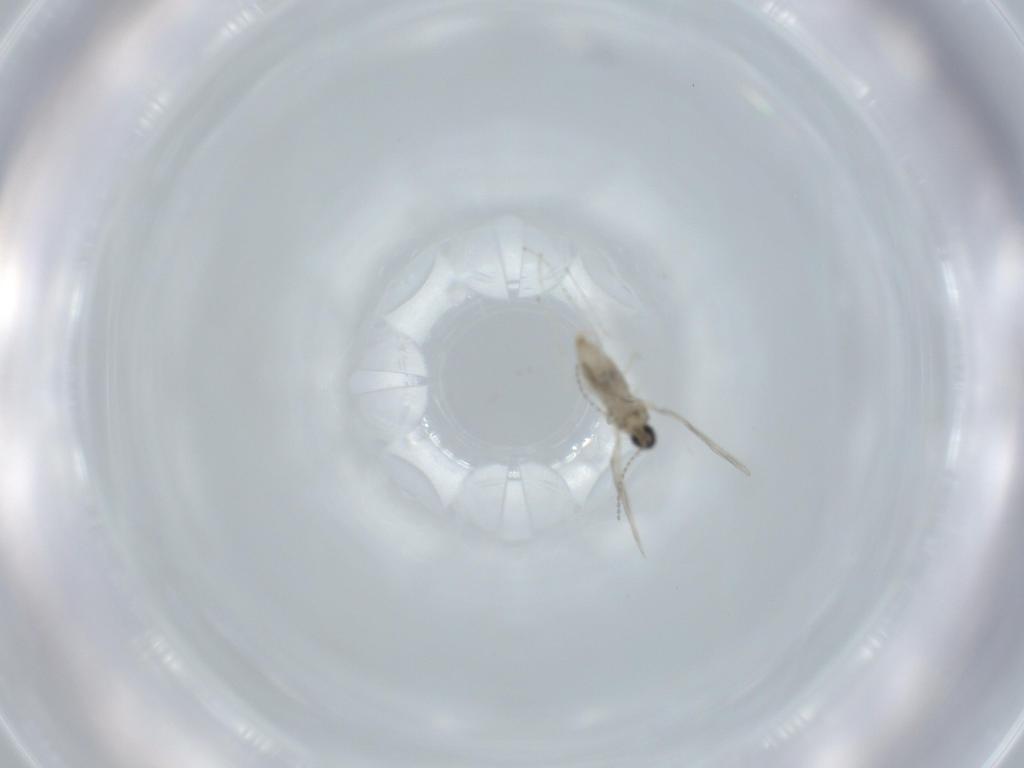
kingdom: Animalia
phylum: Arthropoda
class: Insecta
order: Diptera
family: Cecidomyiidae
